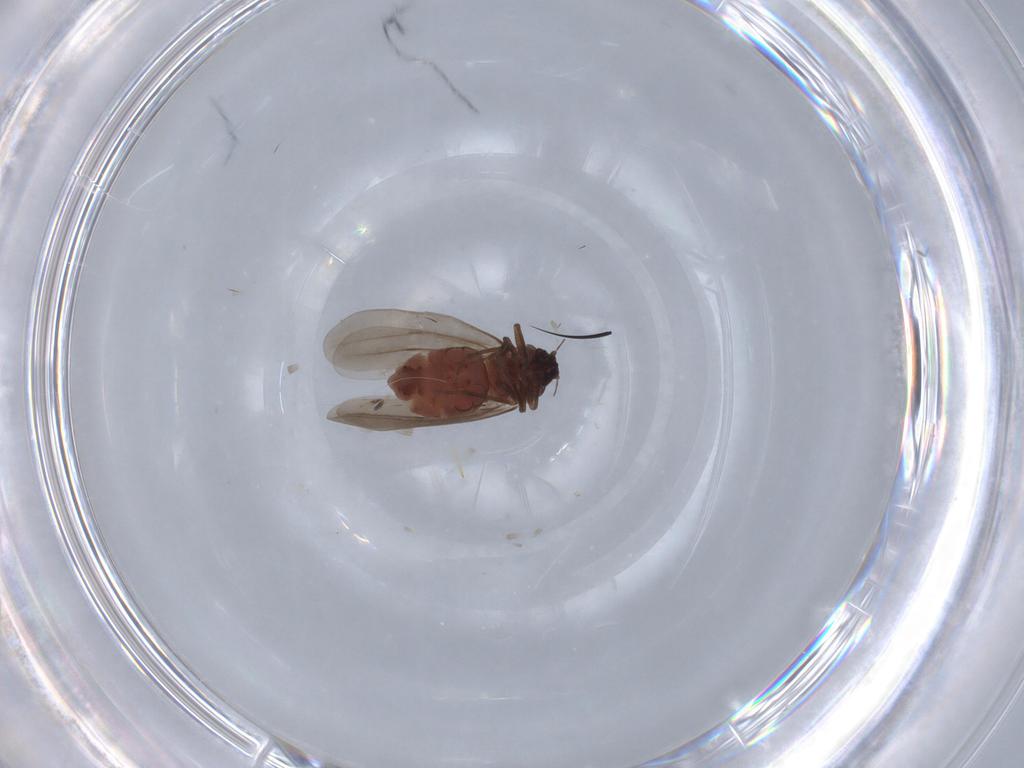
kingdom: Animalia
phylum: Arthropoda
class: Insecta
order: Hemiptera
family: Aleyrodidae
